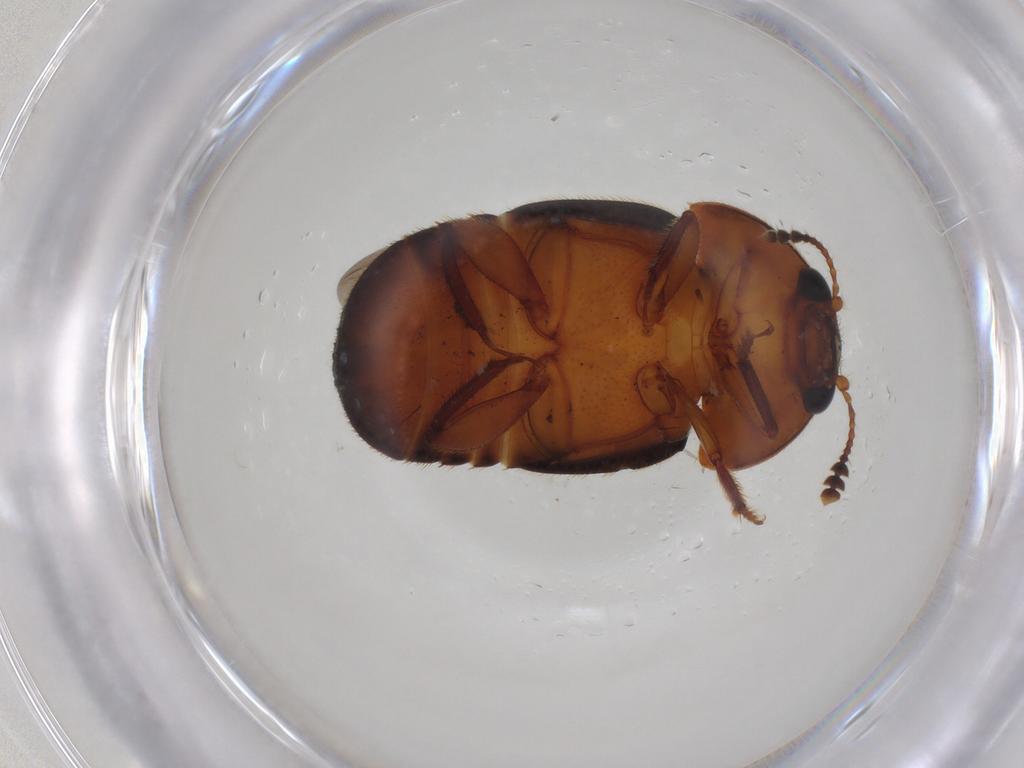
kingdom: Animalia
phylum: Arthropoda
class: Insecta
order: Coleoptera
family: Nitidulidae
